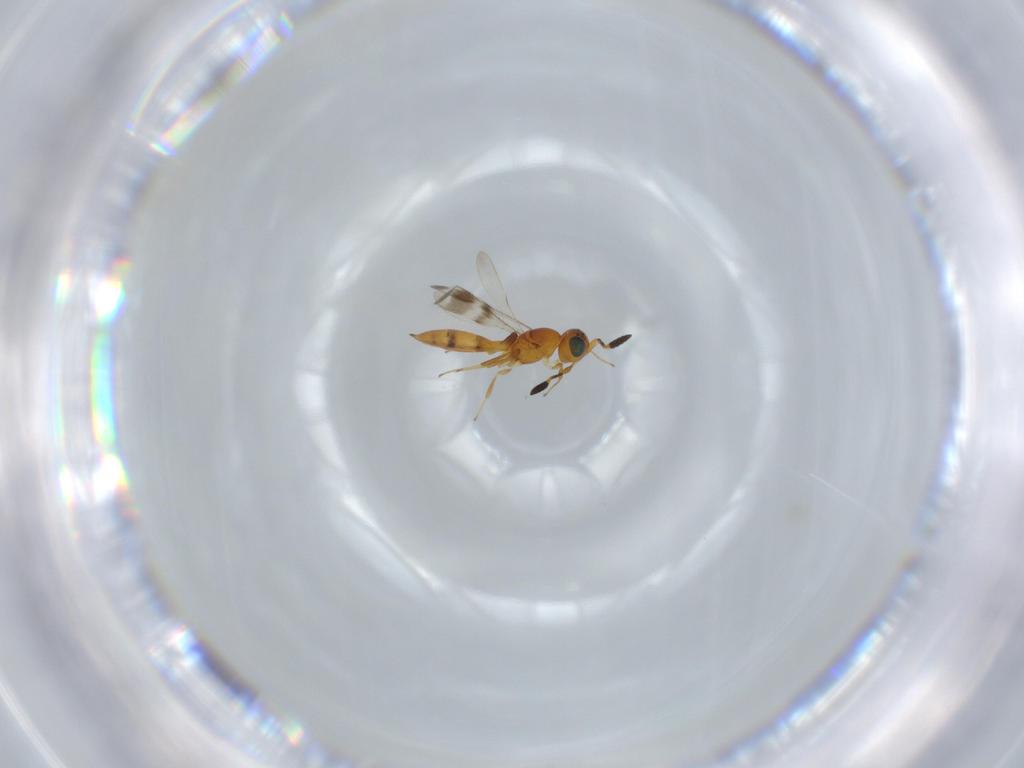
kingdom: Animalia
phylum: Arthropoda
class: Insecta
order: Hymenoptera
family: Scelionidae
